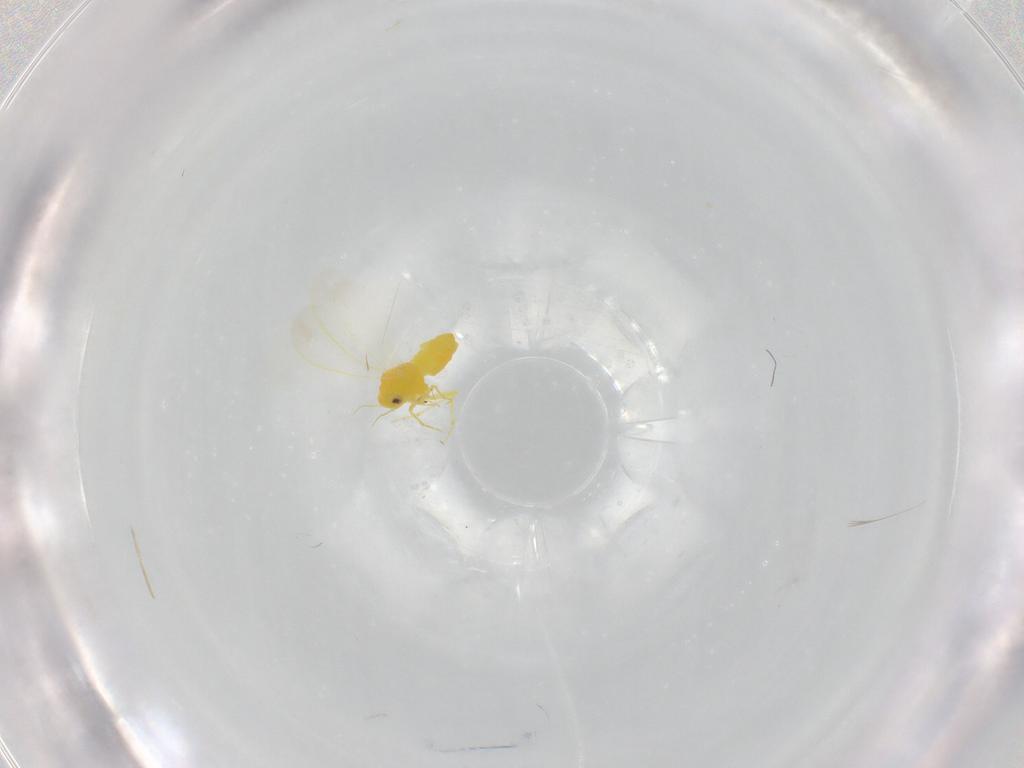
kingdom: Animalia
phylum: Arthropoda
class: Insecta
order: Hemiptera
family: Aleyrodidae
